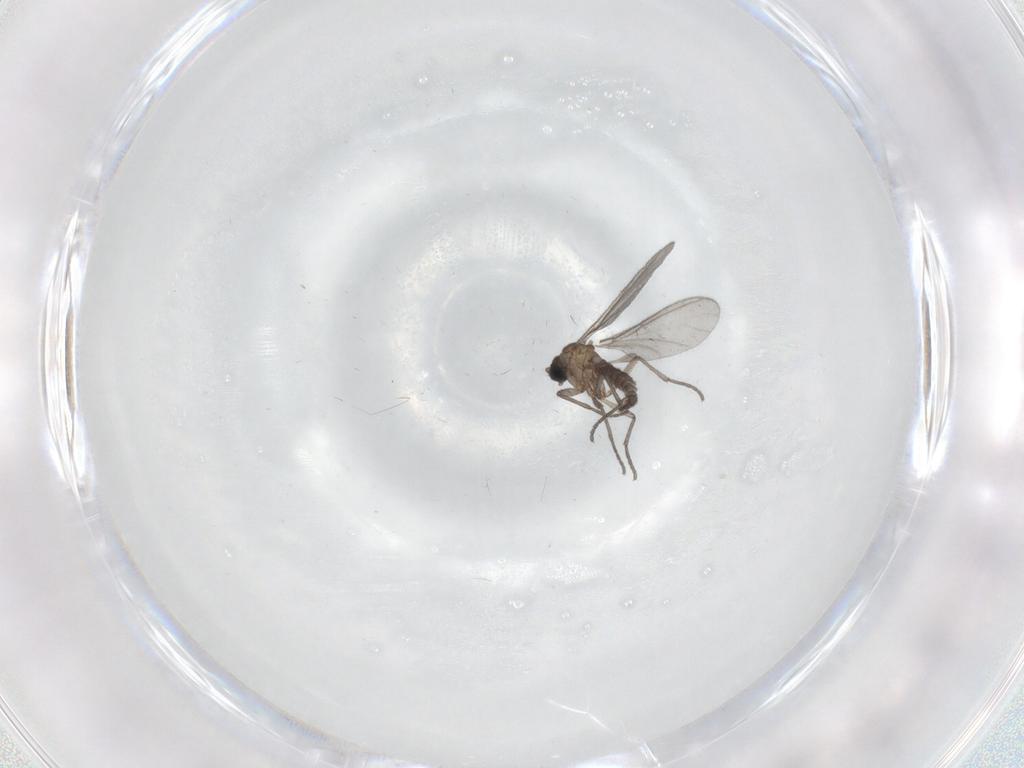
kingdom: Animalia
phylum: Arthropoda
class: Insecta
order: Diptera
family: Sciaridae
